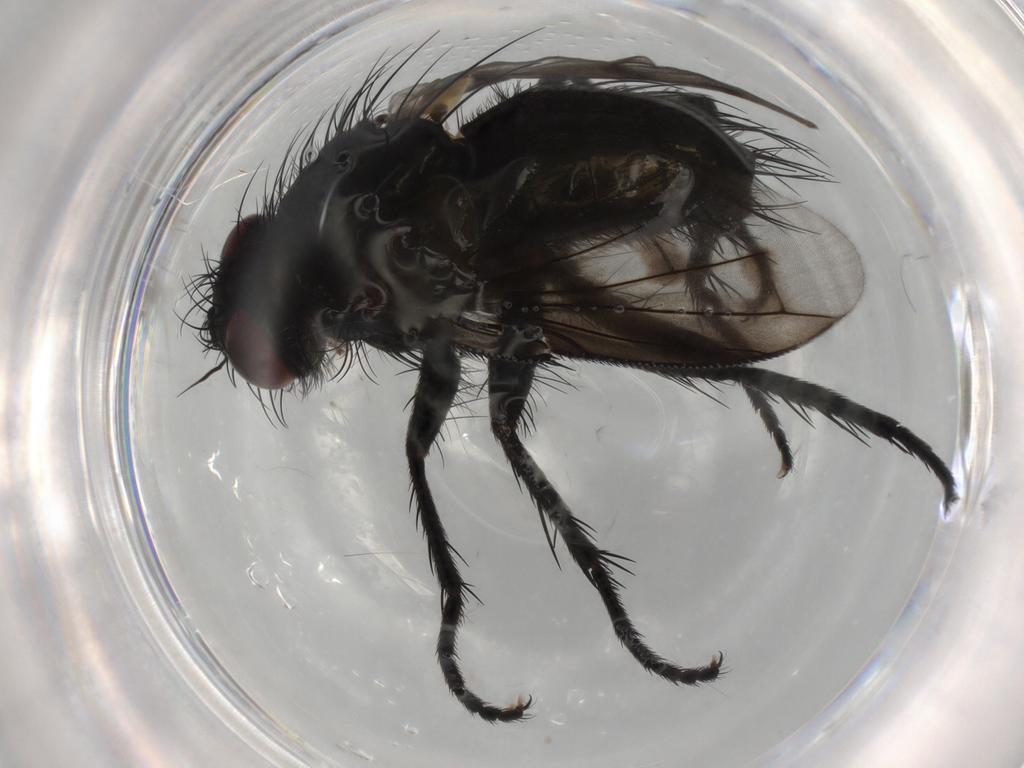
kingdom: Animalia
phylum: Arthropoda
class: Insecta
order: Diptera
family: Tachinidae
